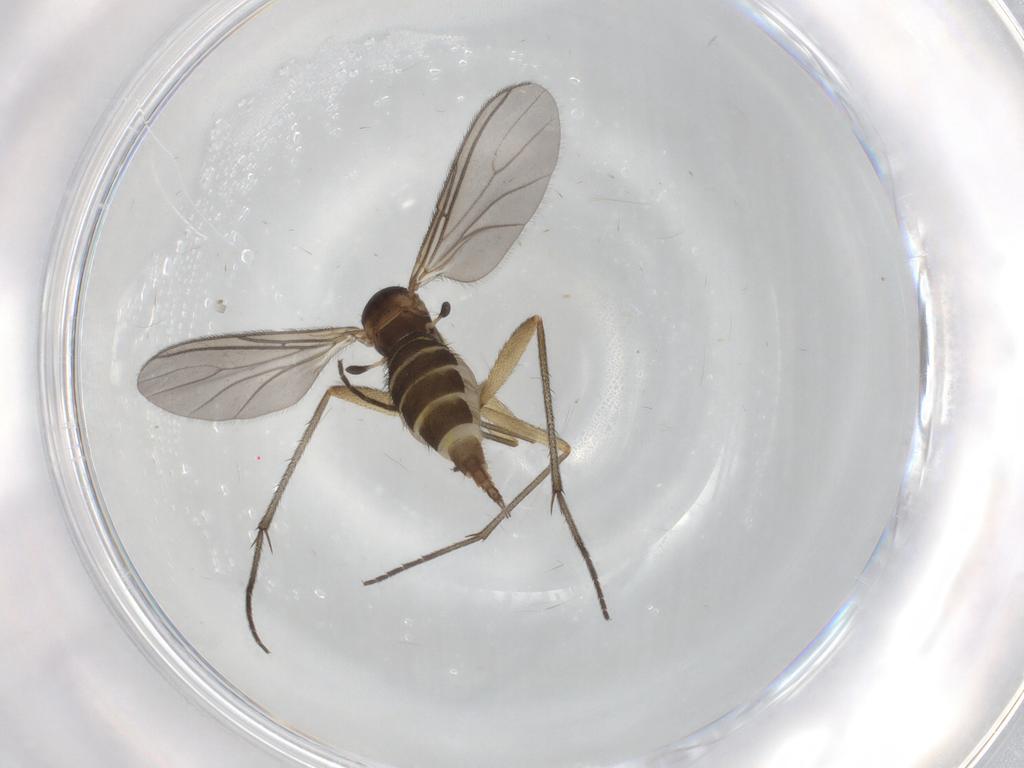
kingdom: Animalia
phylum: Arthropoda
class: Insecta
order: Diptera
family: Sciaridae
